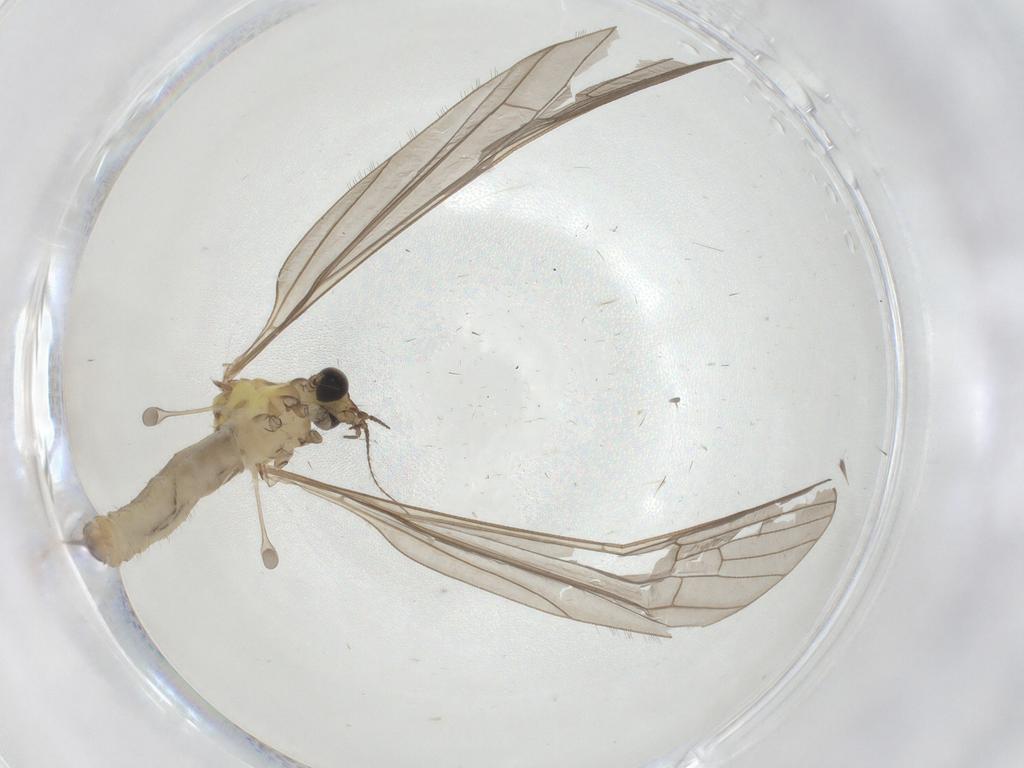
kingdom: Animalia
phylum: Arthropoda
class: Insecta
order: Diptera
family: Limoniidae
